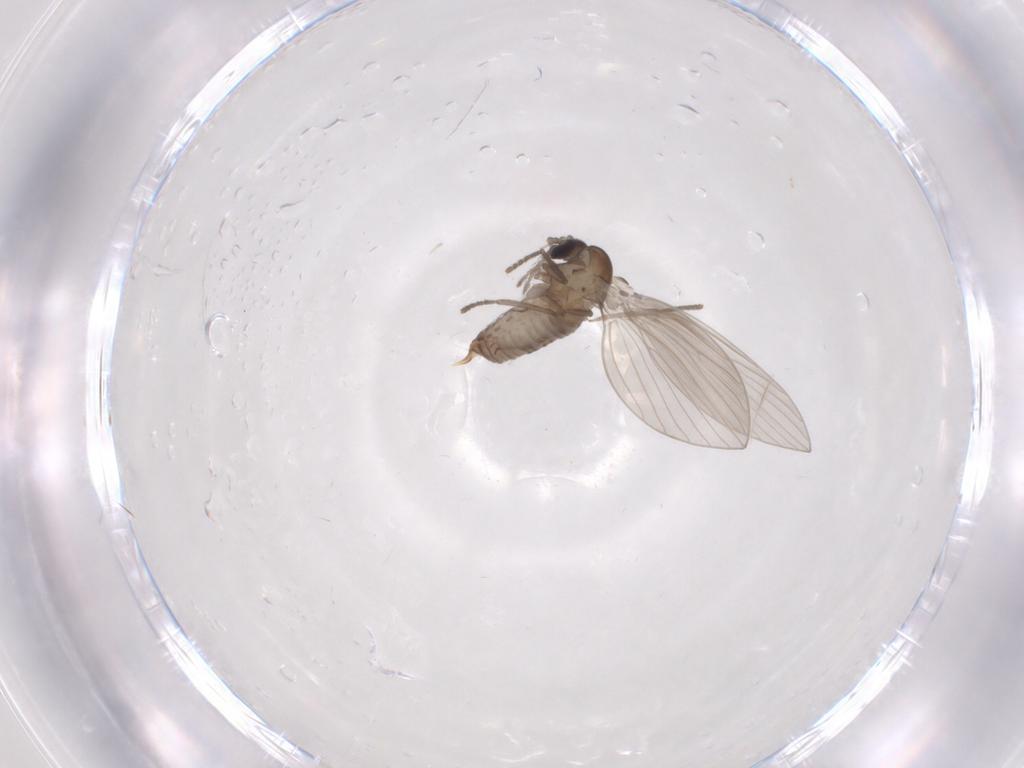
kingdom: Animalia
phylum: Arthropoda
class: Insecta
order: Diptera
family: Psychodidae
